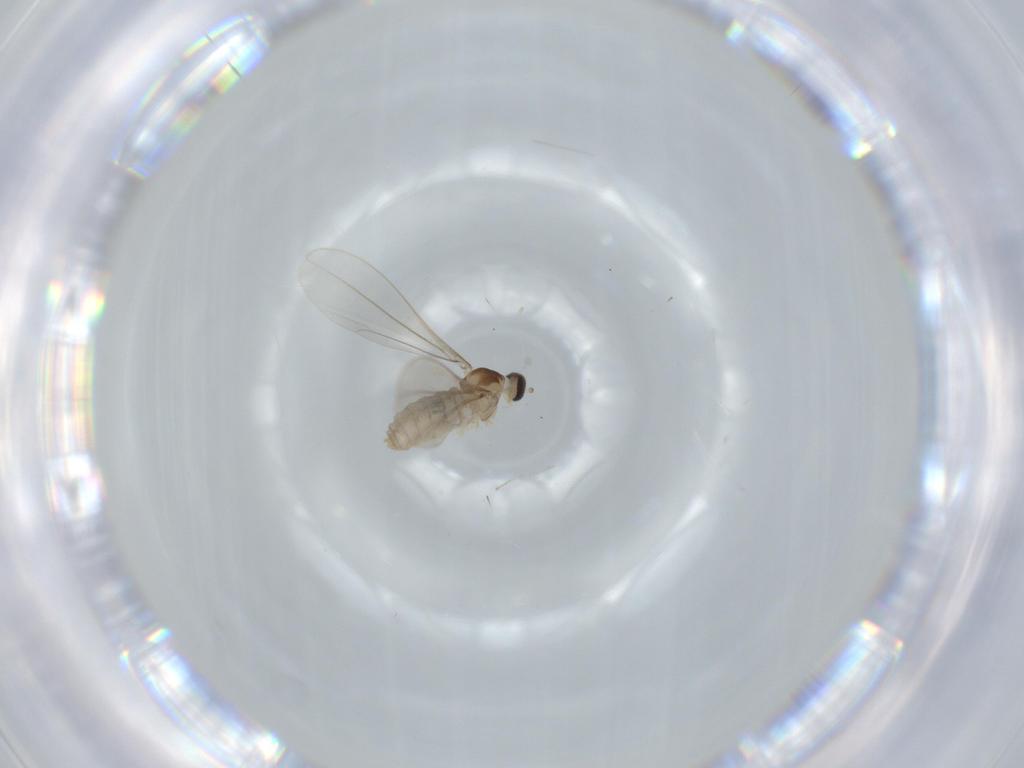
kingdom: Animalia
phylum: Arthropoda
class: Insecta
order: Diptera
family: Cecidomyiidae
